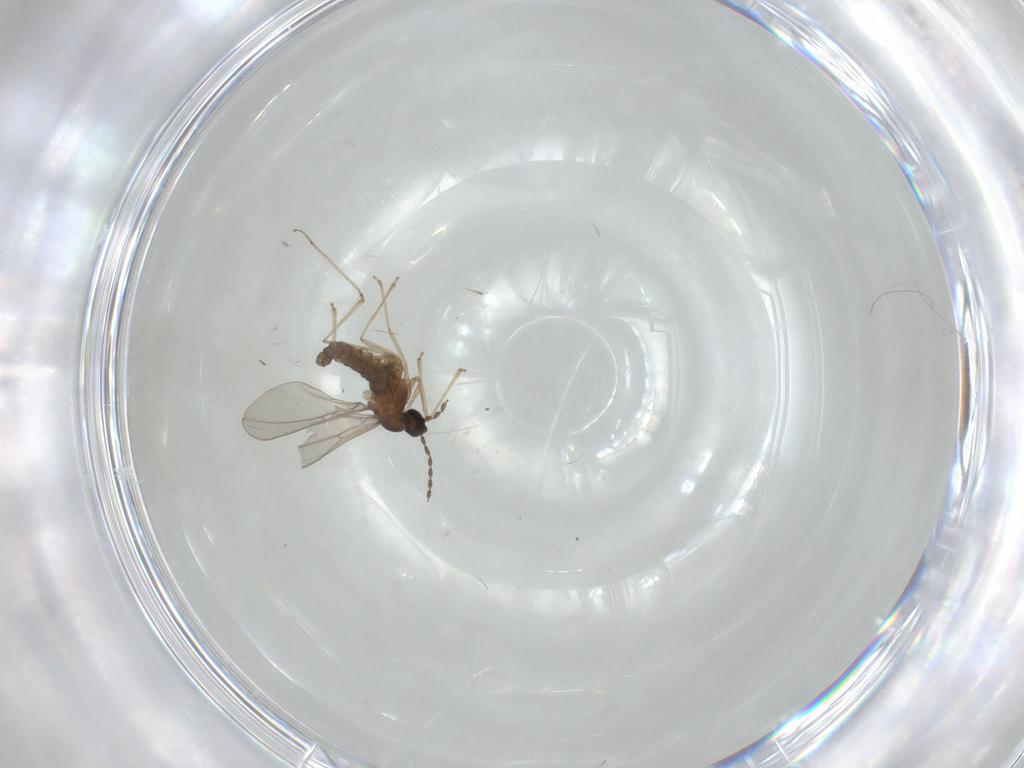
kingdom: Animalia
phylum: Arthropoda
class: Insecta
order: Diptera
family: Cecidomyiidae
